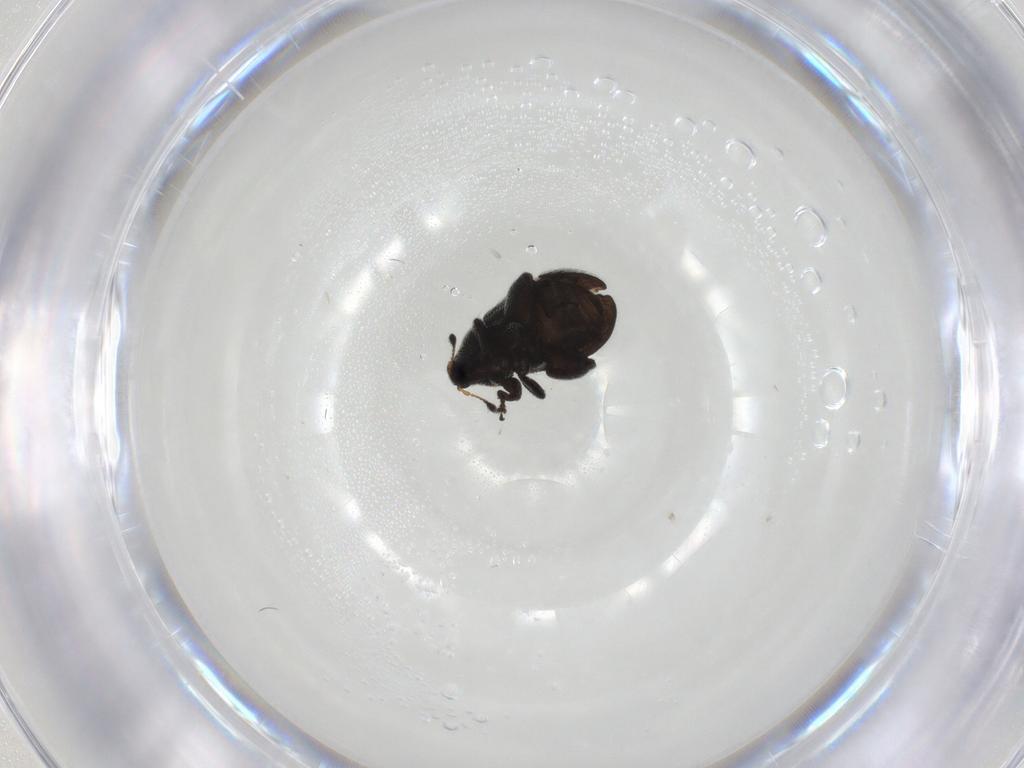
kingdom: Animalia
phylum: Arthropoda
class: Insecta
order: Coleoptera
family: Curculionidae
